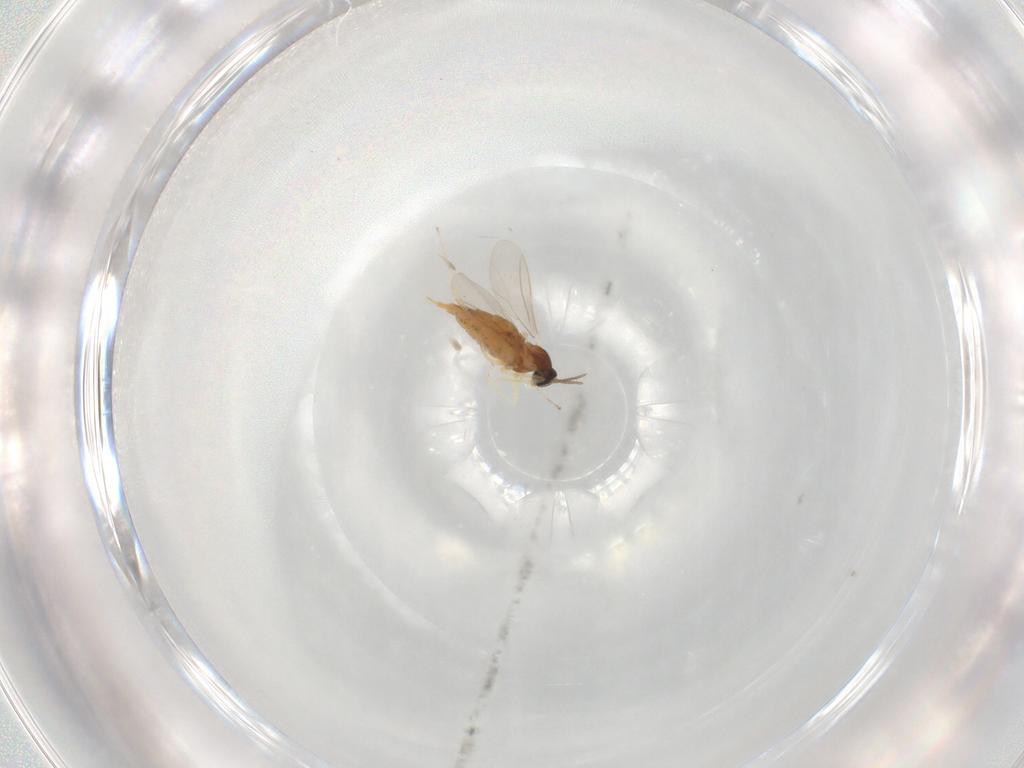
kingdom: Animalia
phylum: Arthropoda
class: Insecta
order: Diptera
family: Cecidomyiidae
